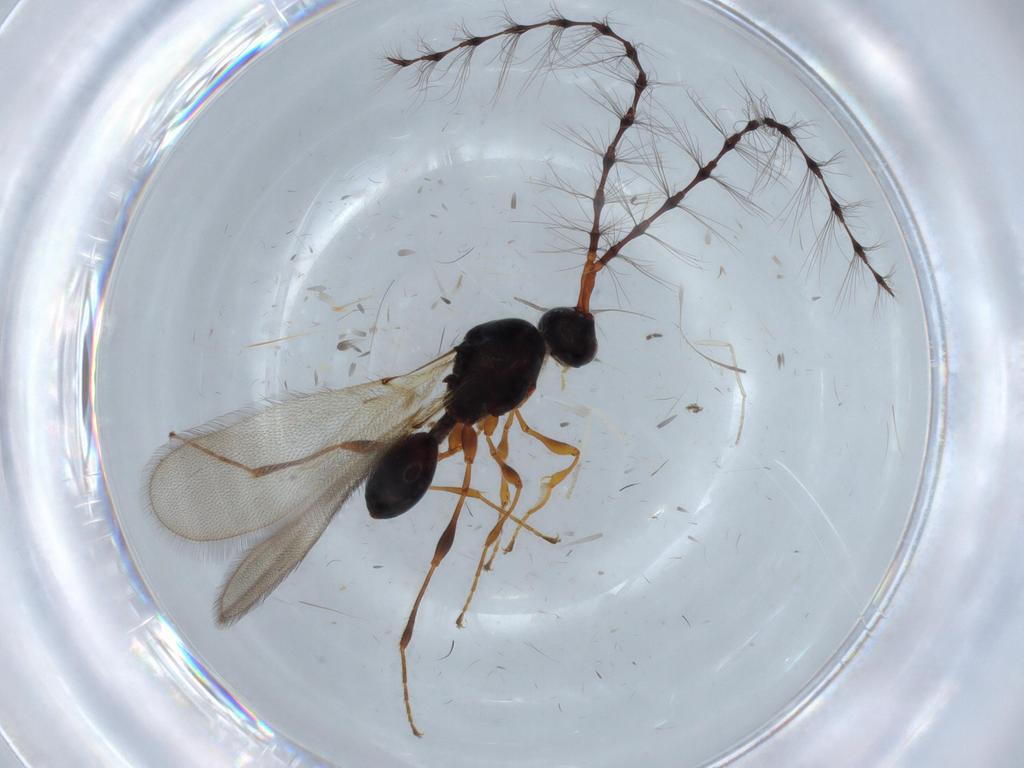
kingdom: Animalia
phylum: Arthropoda
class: Insecta
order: Hymenoptera
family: Diapriidae
